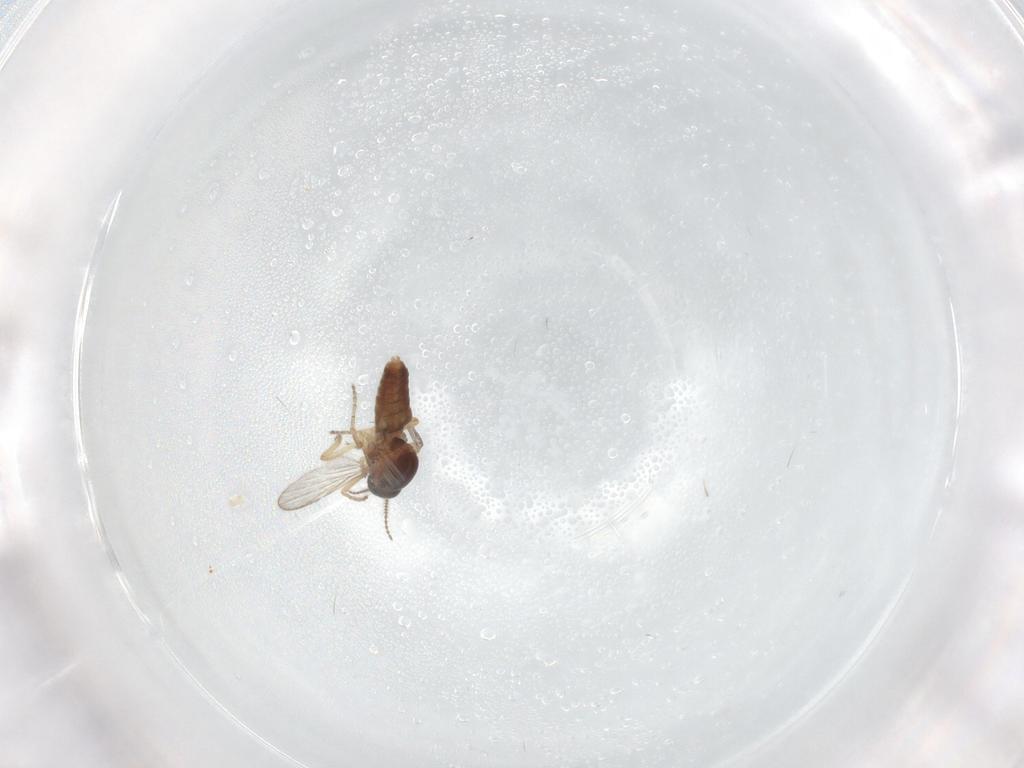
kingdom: Animalia
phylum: Arthropoda
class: Insecta
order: Diptera
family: Ceratopogonidae
